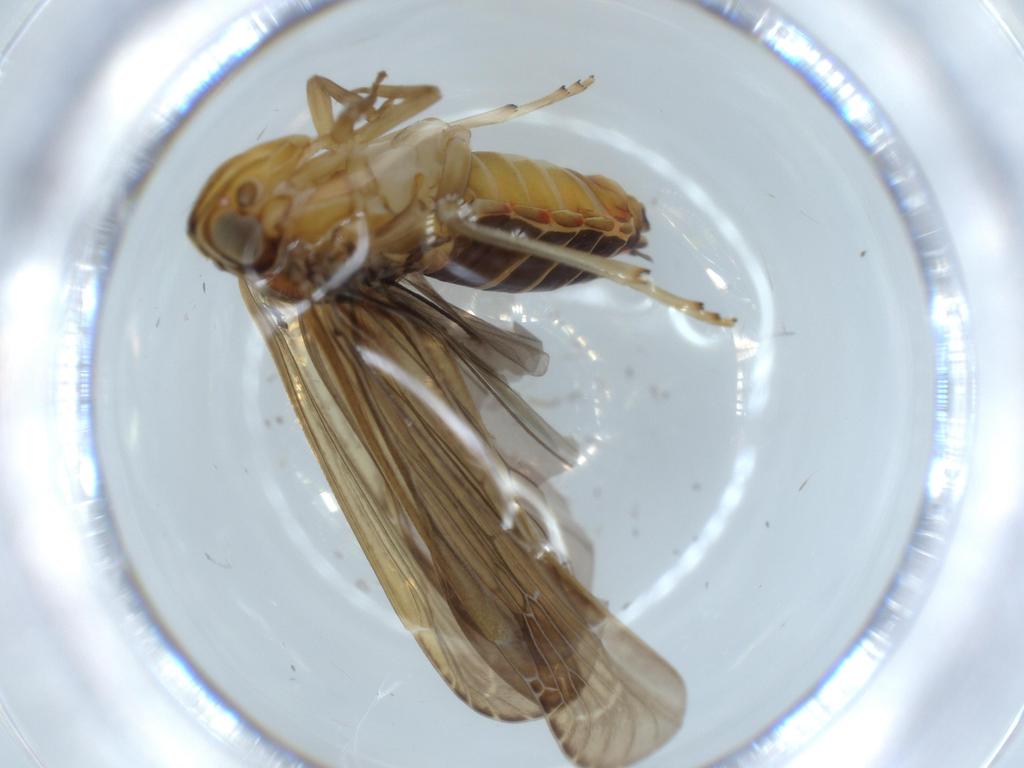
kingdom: Animalia
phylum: Arthropoda
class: Insecta
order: Hemiptera
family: Achilidae
